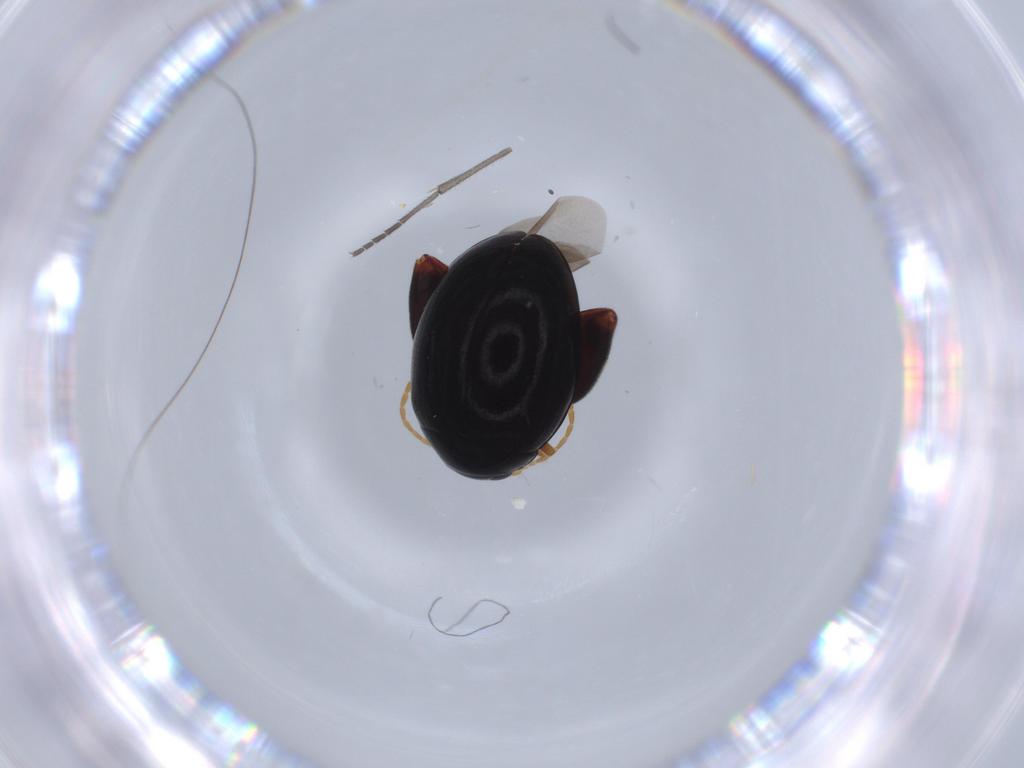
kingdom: Animalia
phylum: Arthropoda
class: Insecta
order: Coleoptera
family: Chrysomelidae
